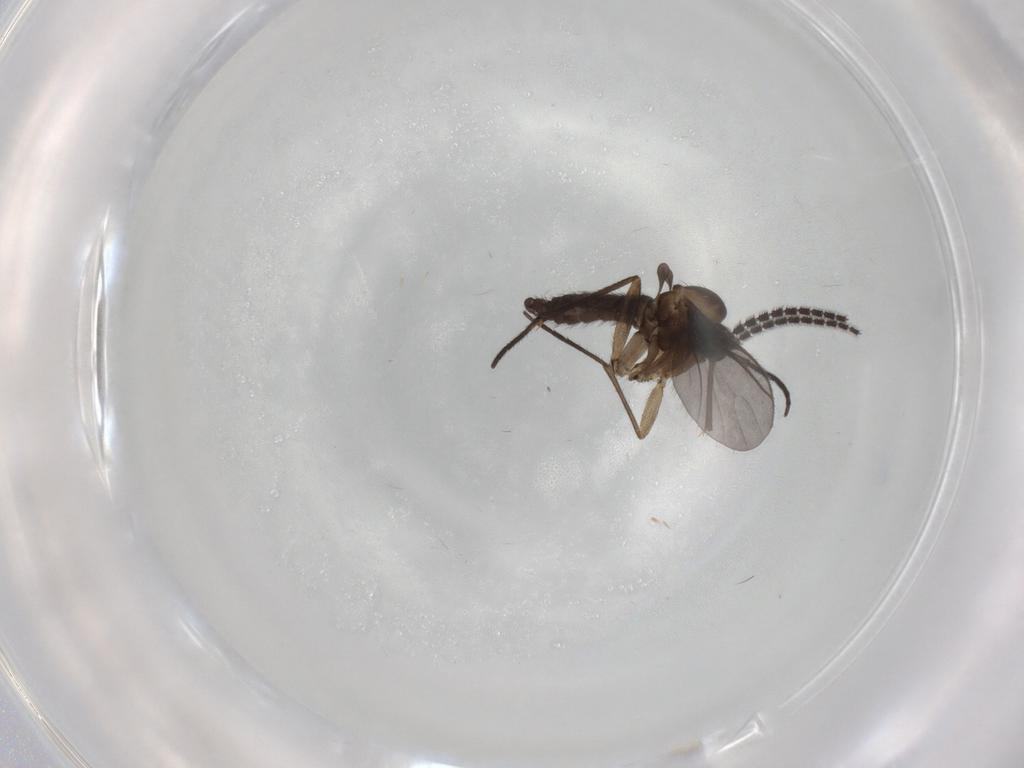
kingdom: Animalia
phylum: Arthropoda
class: Insecta
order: Diptera
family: Sciaridae
